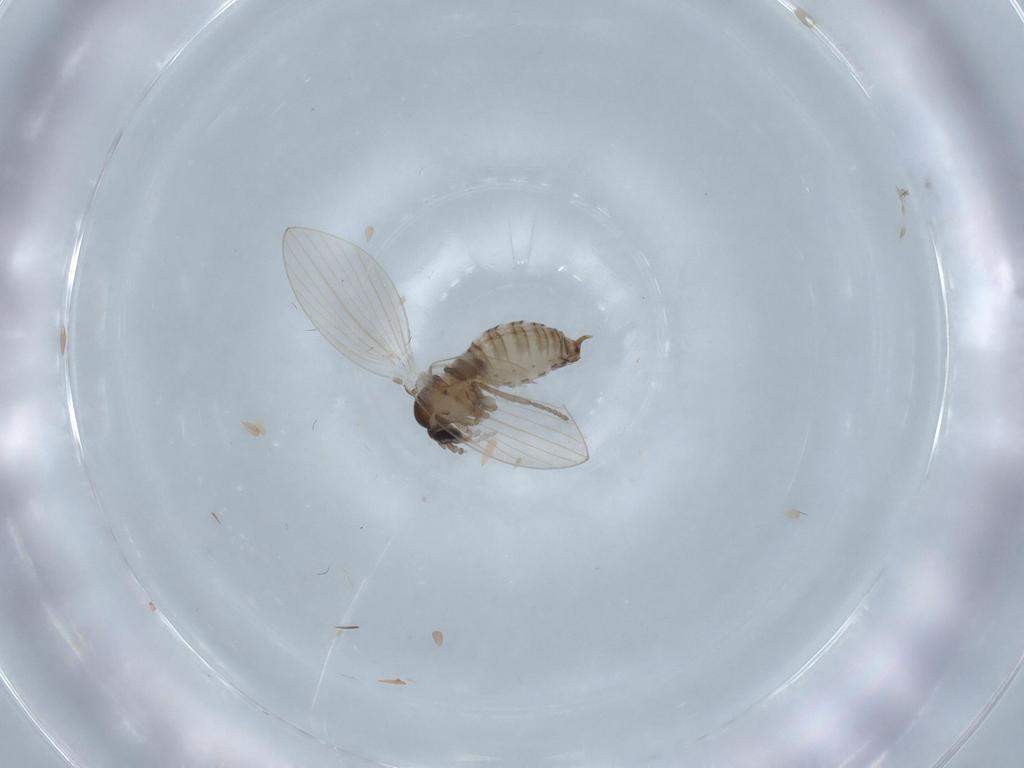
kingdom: Animalia
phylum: Arthropoda
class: Insecta
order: Diptera
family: Psychodidae
